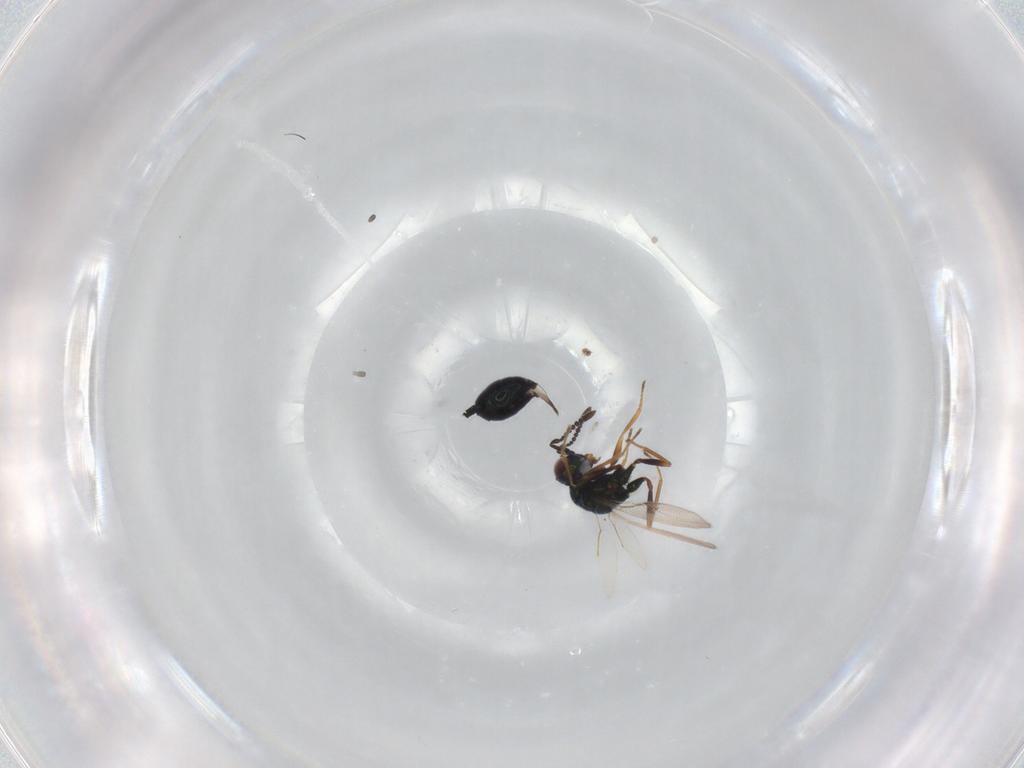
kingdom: Animalia
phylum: Arthropoda
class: Insecta
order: Hymenoptera
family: Pteromalidae
